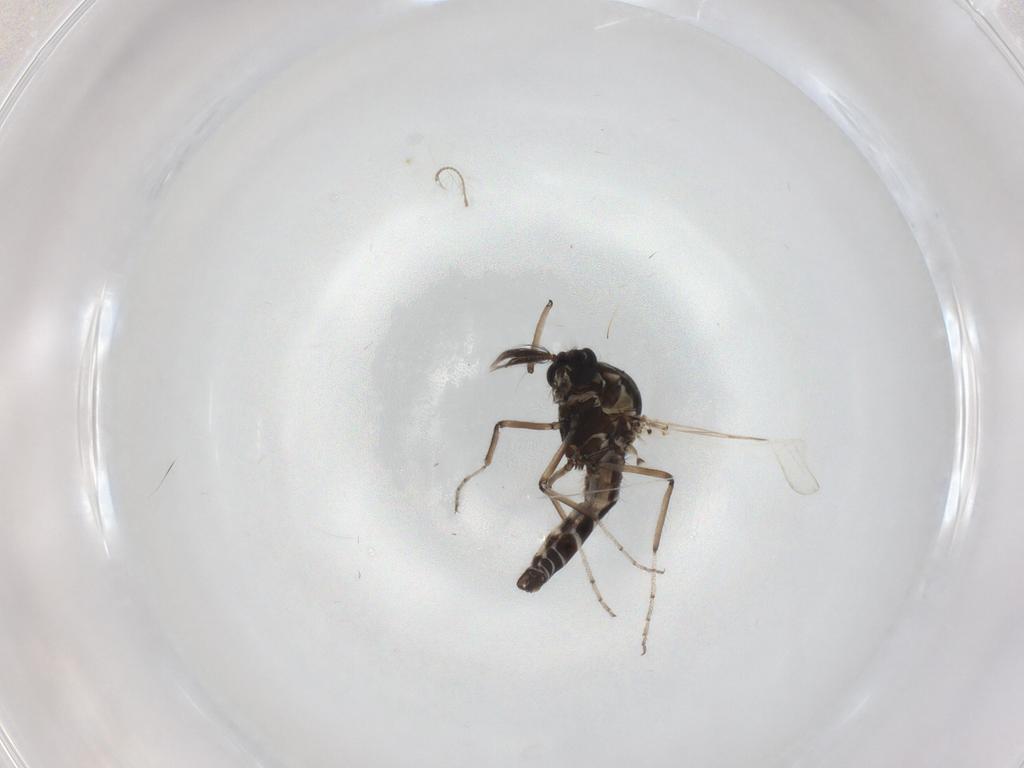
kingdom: Animalia
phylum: Arthropoda
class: Insecta
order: Diptera
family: Ceratopogonidae
